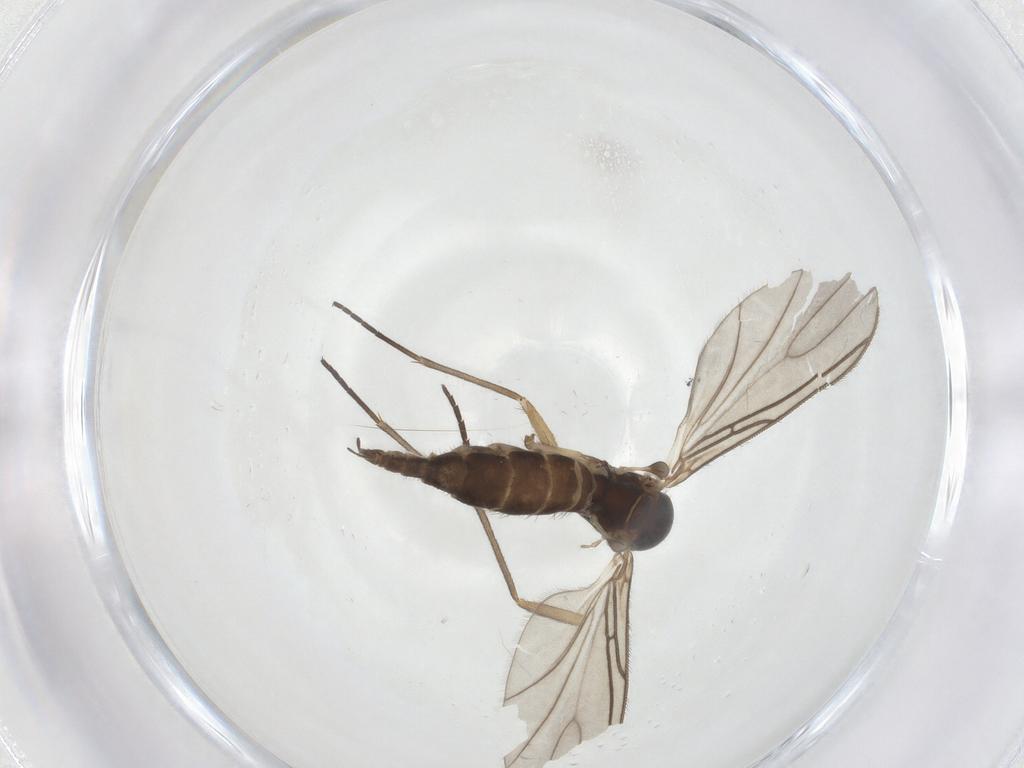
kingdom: Animalia
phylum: Arthropoda
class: Insecta
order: Diptera
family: Sciaridae
